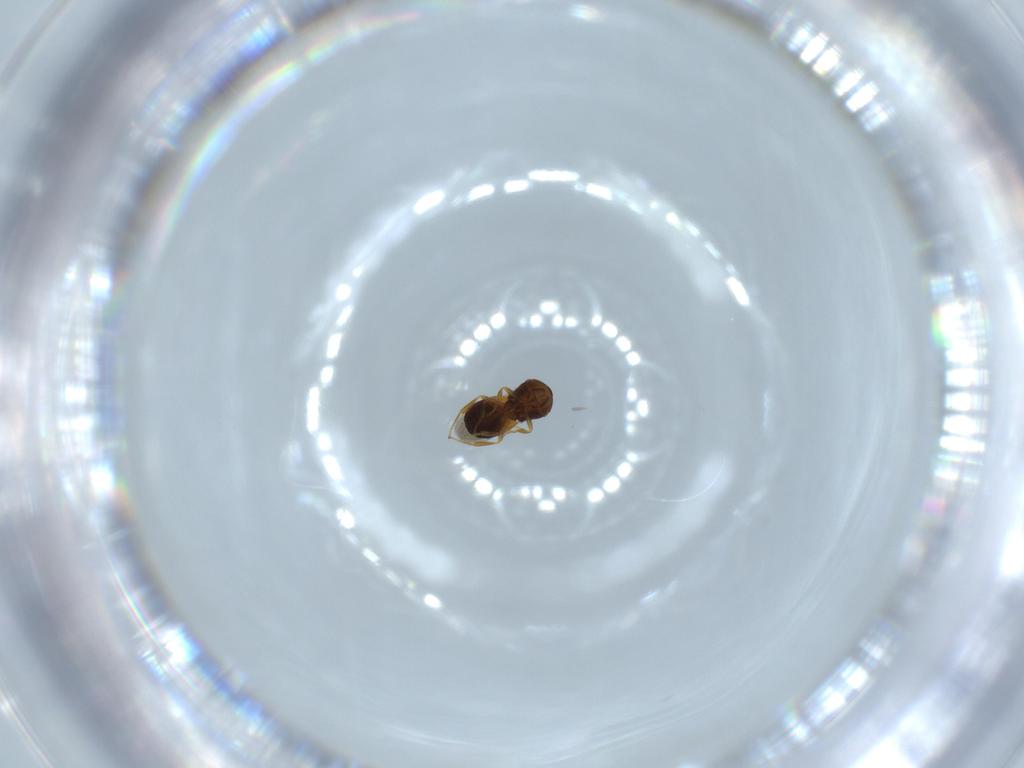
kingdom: Animalia
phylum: Arthropoda
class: Insecta
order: Hymenoptera
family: Scelionidae
